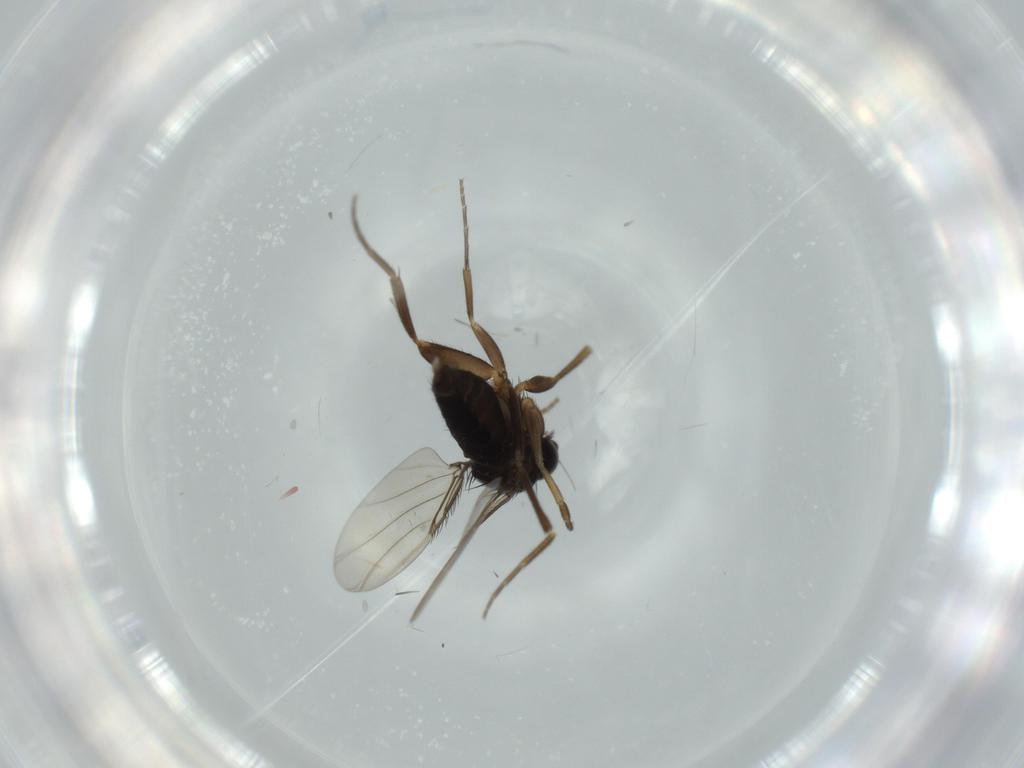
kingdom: Animalia
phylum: Arthropoda
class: Insecta
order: Diptera
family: Phoridae
